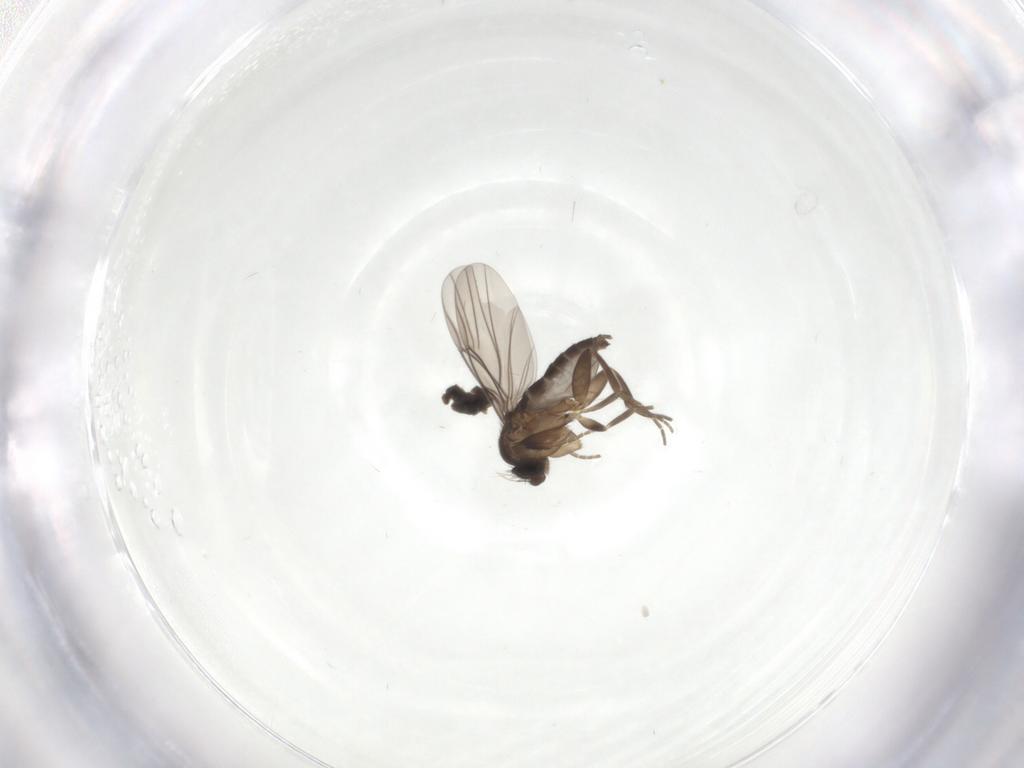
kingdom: Animalia
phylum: Arthropoda
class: Insecta
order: Diptera
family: Phoridae
